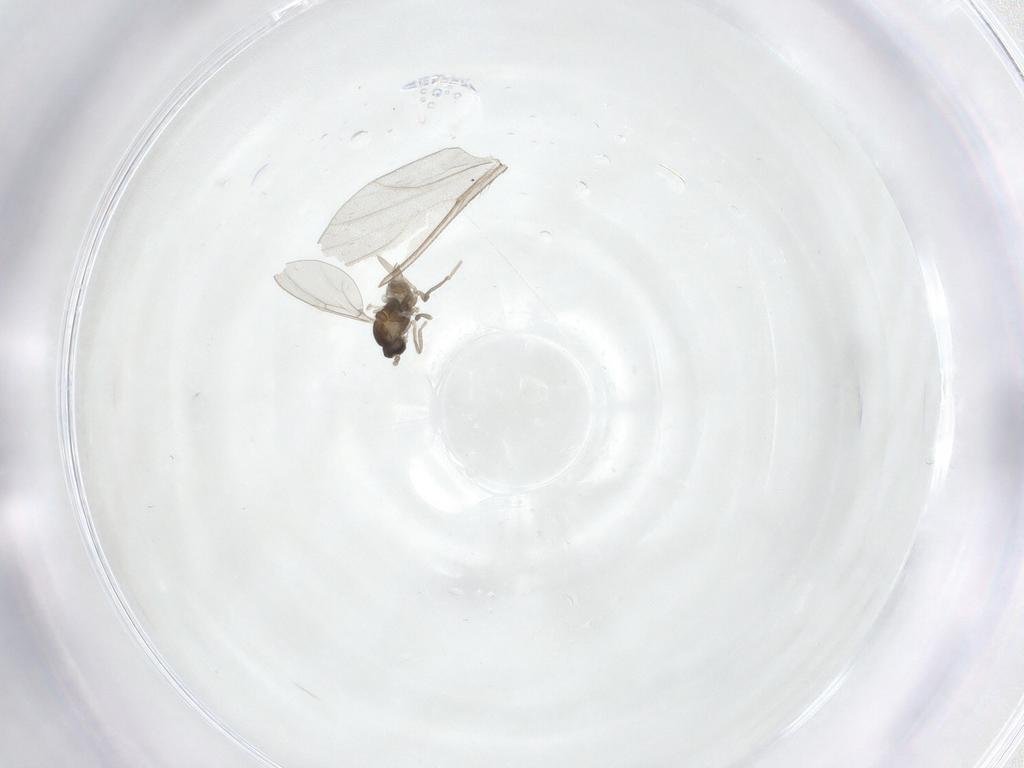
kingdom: Animalia
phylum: Arthropoda
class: Insecta
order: Diptera
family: Cecidomyiidae
